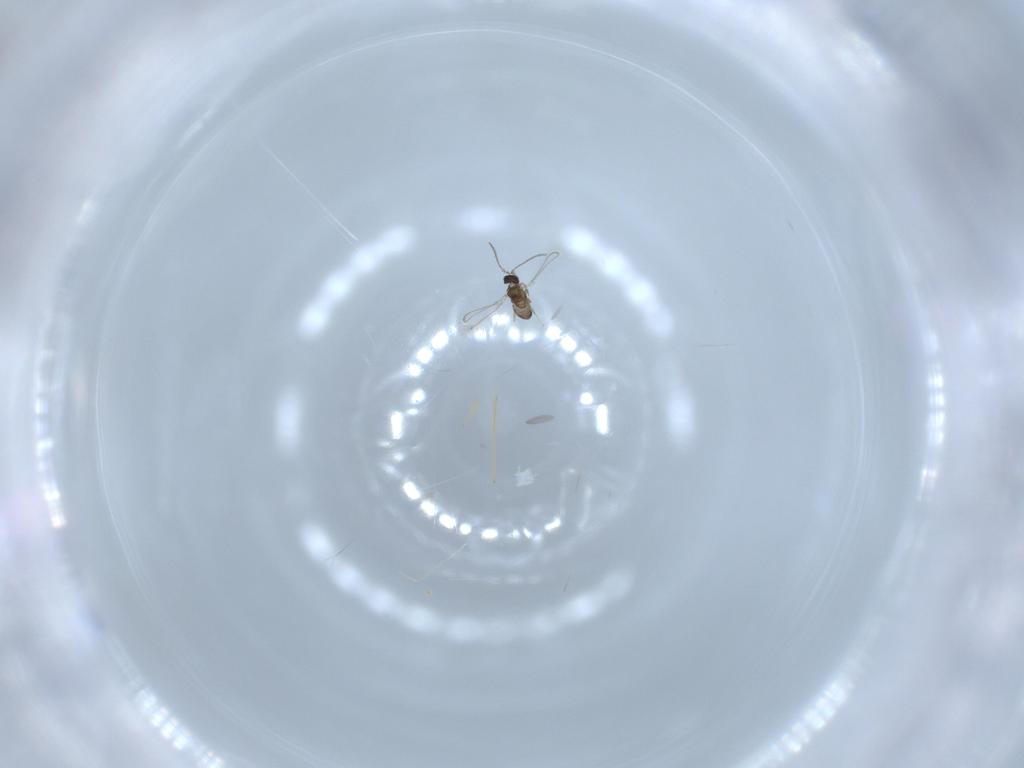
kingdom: Animalia
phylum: Arthropoda
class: Insecta
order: Hymenoptera
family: Mymaridae
